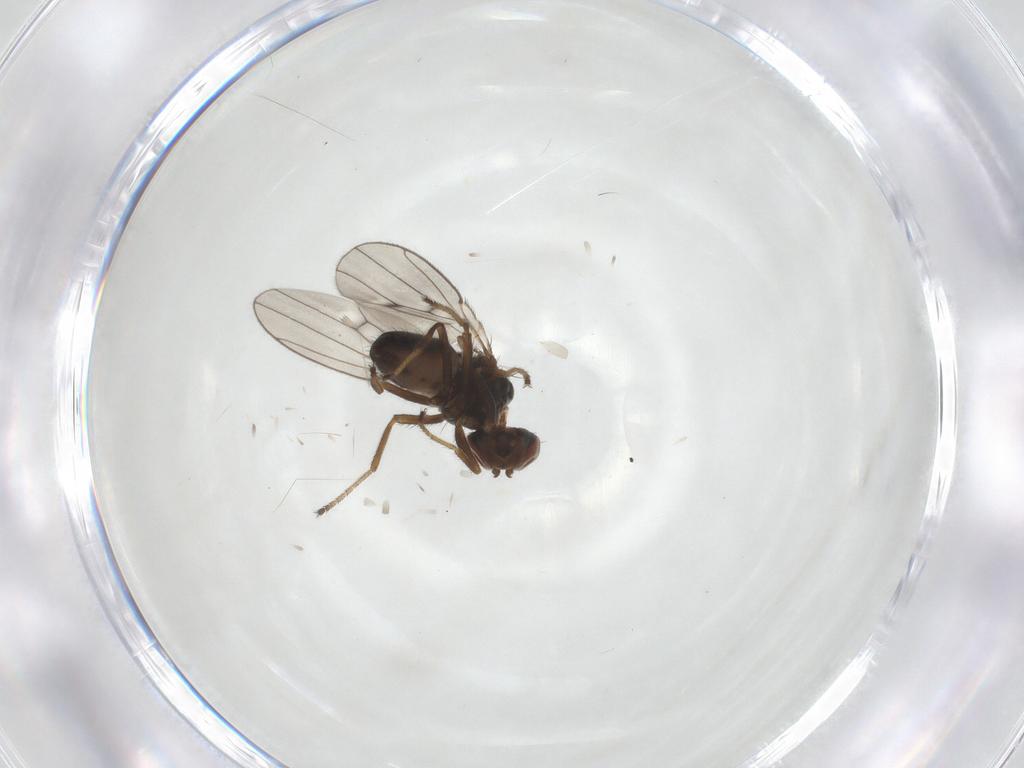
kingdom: Animalia
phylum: Arthropoda
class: Insecta
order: Diptera
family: Ephydridae
